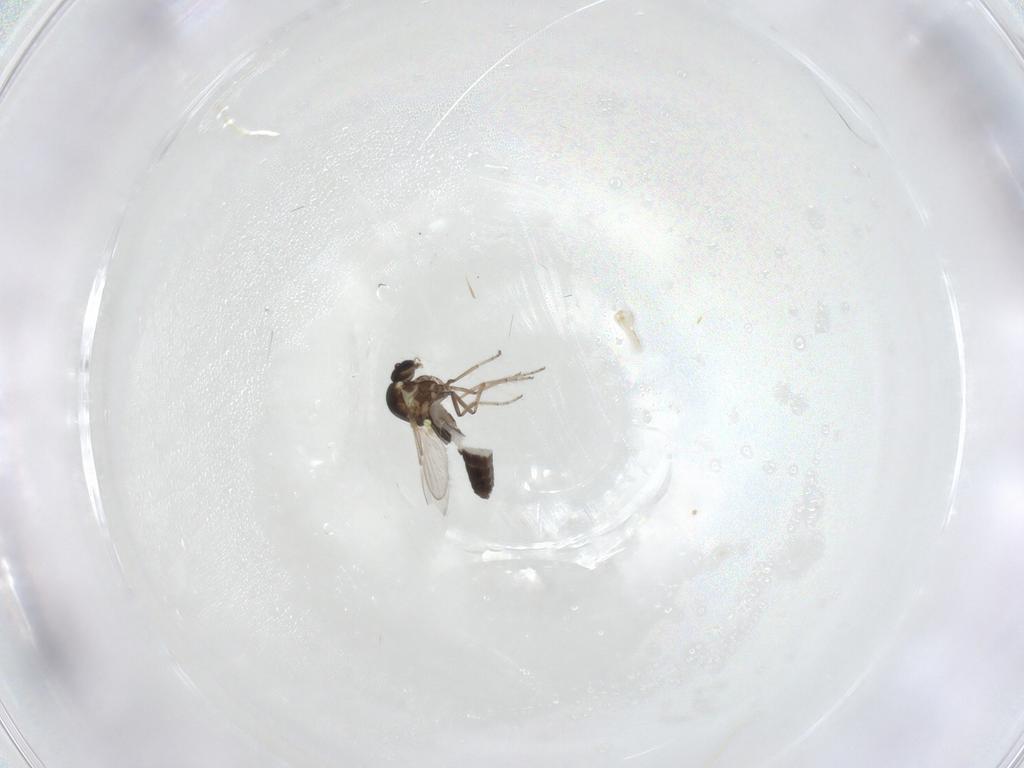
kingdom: Animalia
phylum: Arthropoda
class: Insecta
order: Diptera
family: Ceratopogonidae
